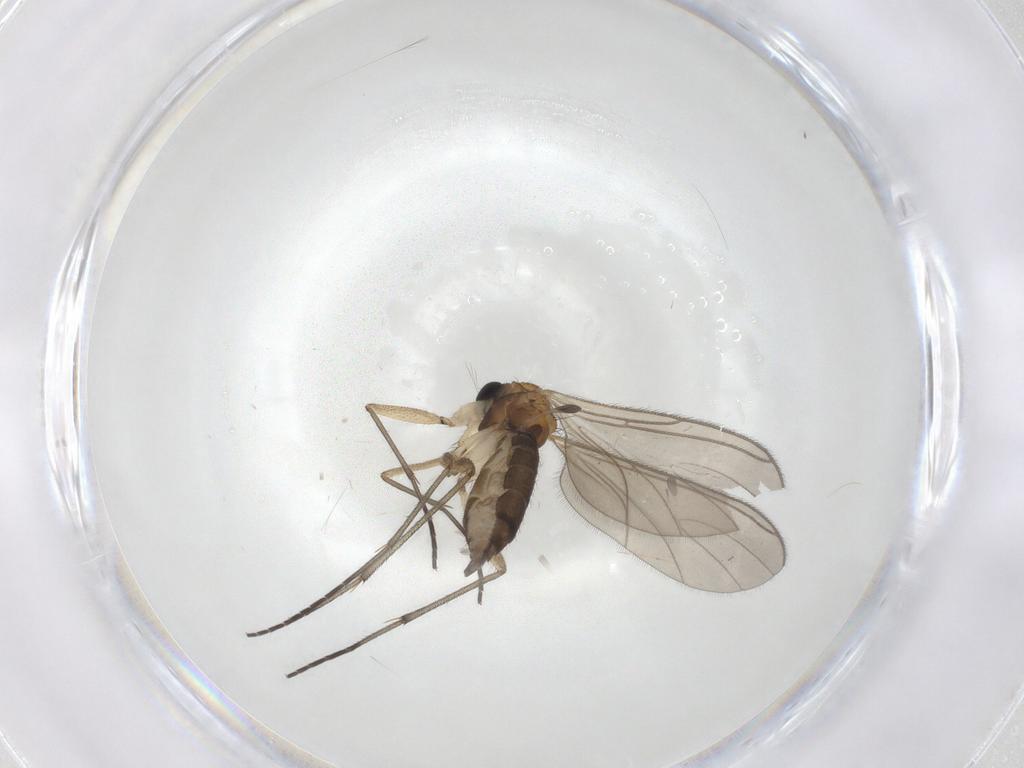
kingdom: Animalia
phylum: Arthropoda
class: Insecta
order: Diptera
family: Sciaridae
